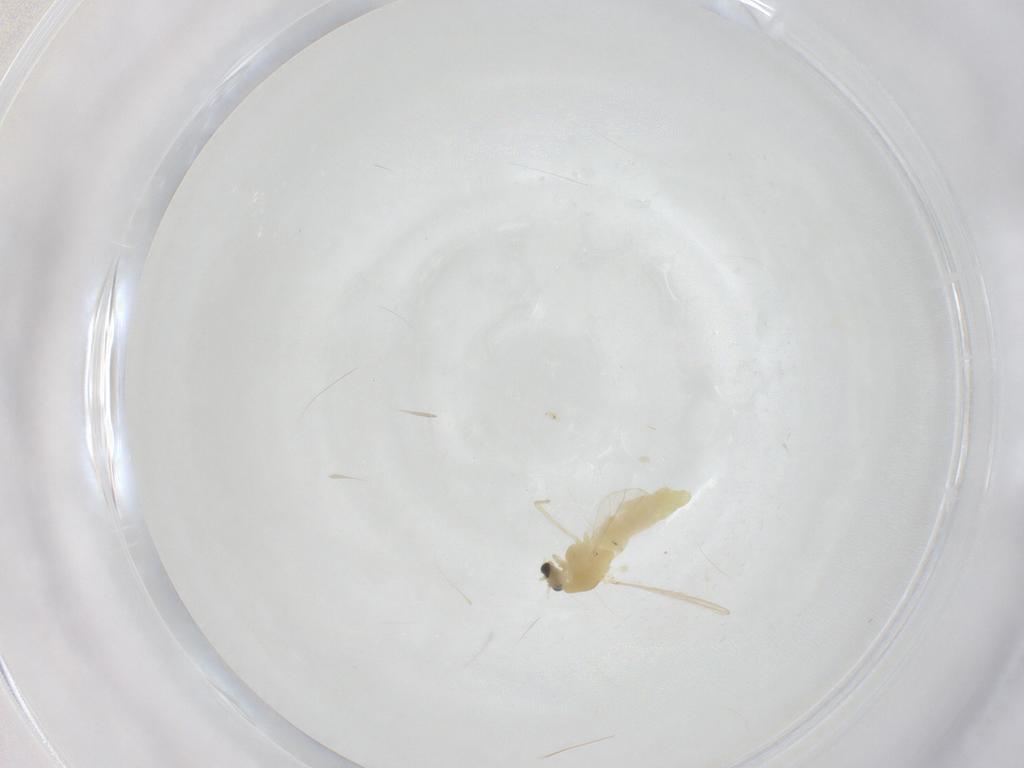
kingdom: Animalia
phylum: Arthropoda
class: Insecta
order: Diptera
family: Chironomidae
